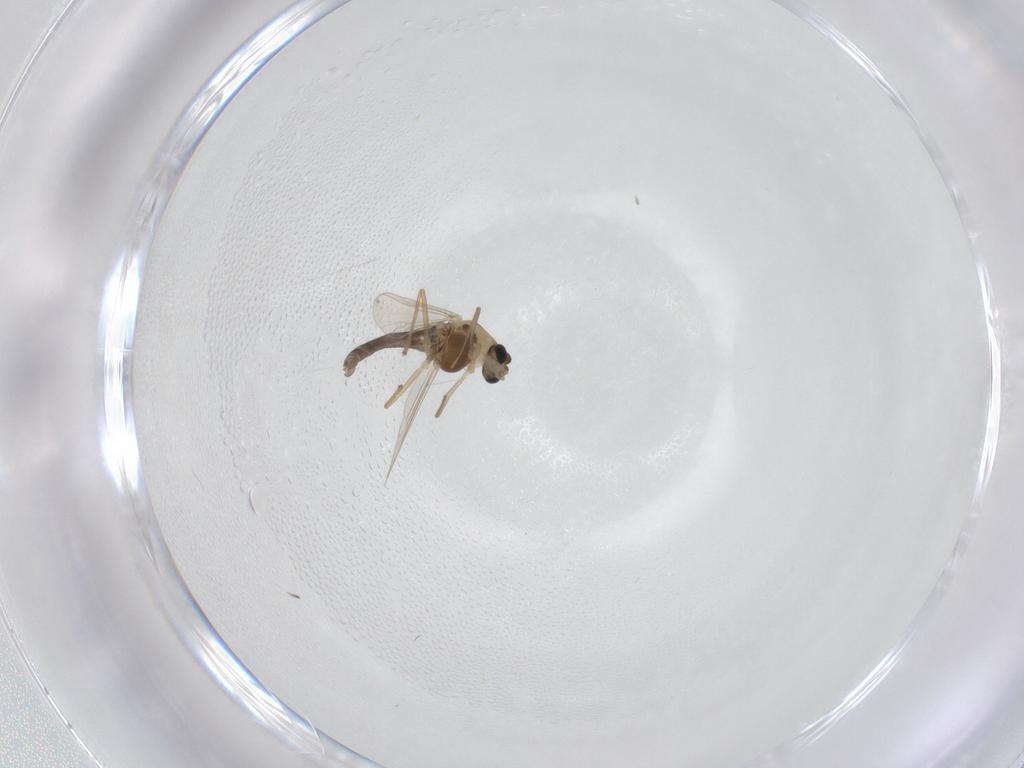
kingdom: Animalia
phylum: Arthropoda
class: Insecta
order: Diptera
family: Chironomidae
